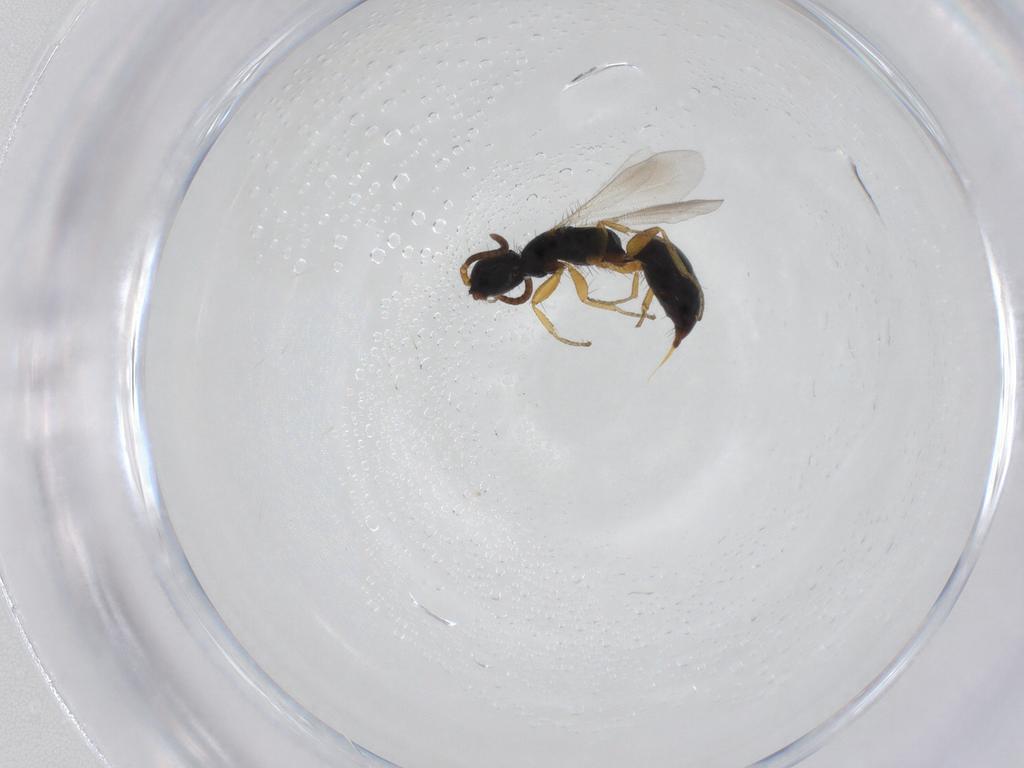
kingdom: Animalia
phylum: Arthropoda
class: Insecta
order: Hymenoptera
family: Bethylidae
